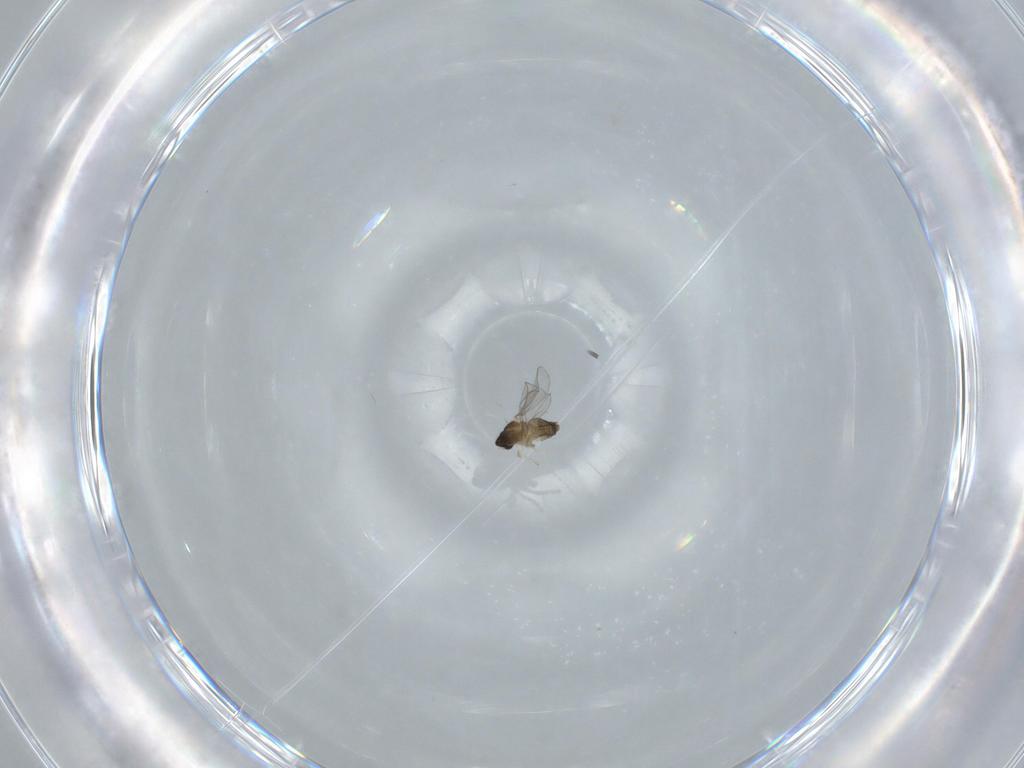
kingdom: Animalia
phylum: Arthropoda
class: Insecta
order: Diptera
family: Cecidomyiidae
